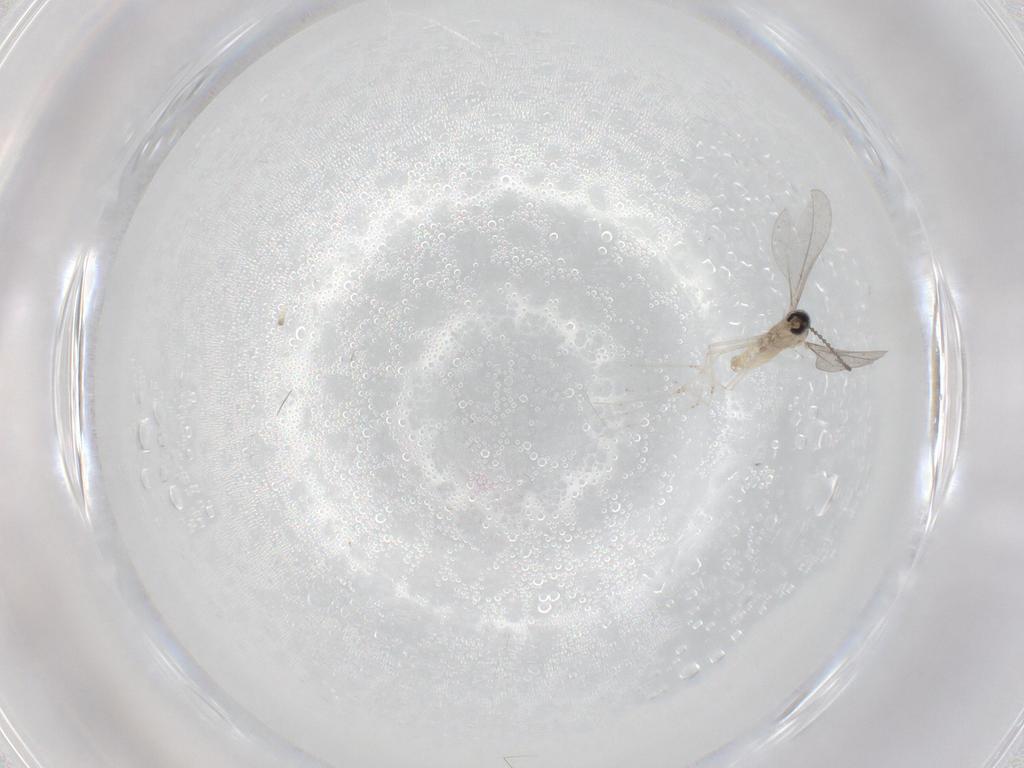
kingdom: Animalia
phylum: Arthropoda
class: Insecta
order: Diptera
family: Cecidomyiidae
